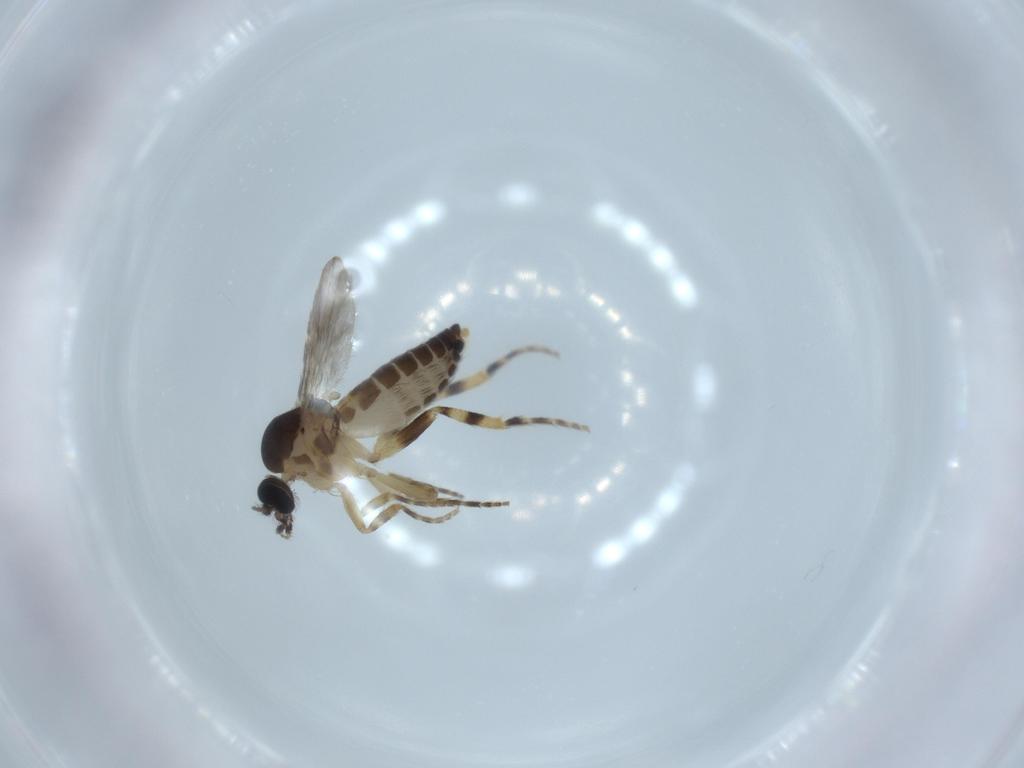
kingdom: Animalia
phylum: Arthropoda
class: Insecta
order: Diptera
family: Ceratopogonidae
